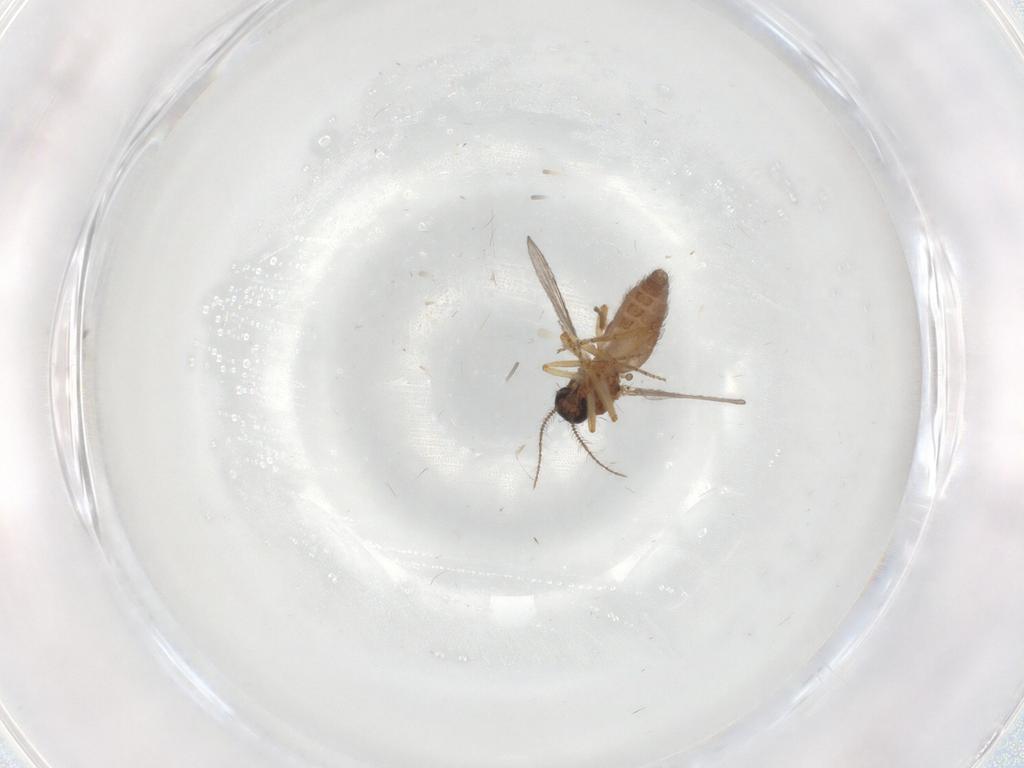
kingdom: Animalia
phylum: Arthropoda
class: Insecta
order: Diptera
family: Ceratopogonidae
